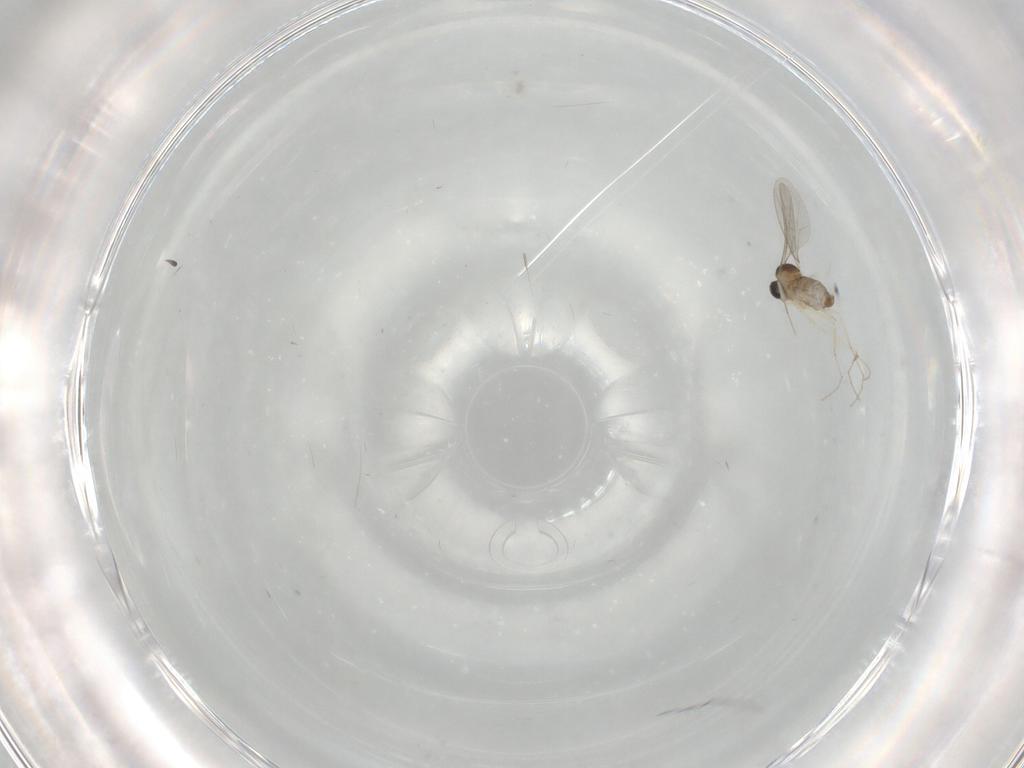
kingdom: Animalia
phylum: Arthropoda
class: Insecta
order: Diptera
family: Cecidomyiidae
